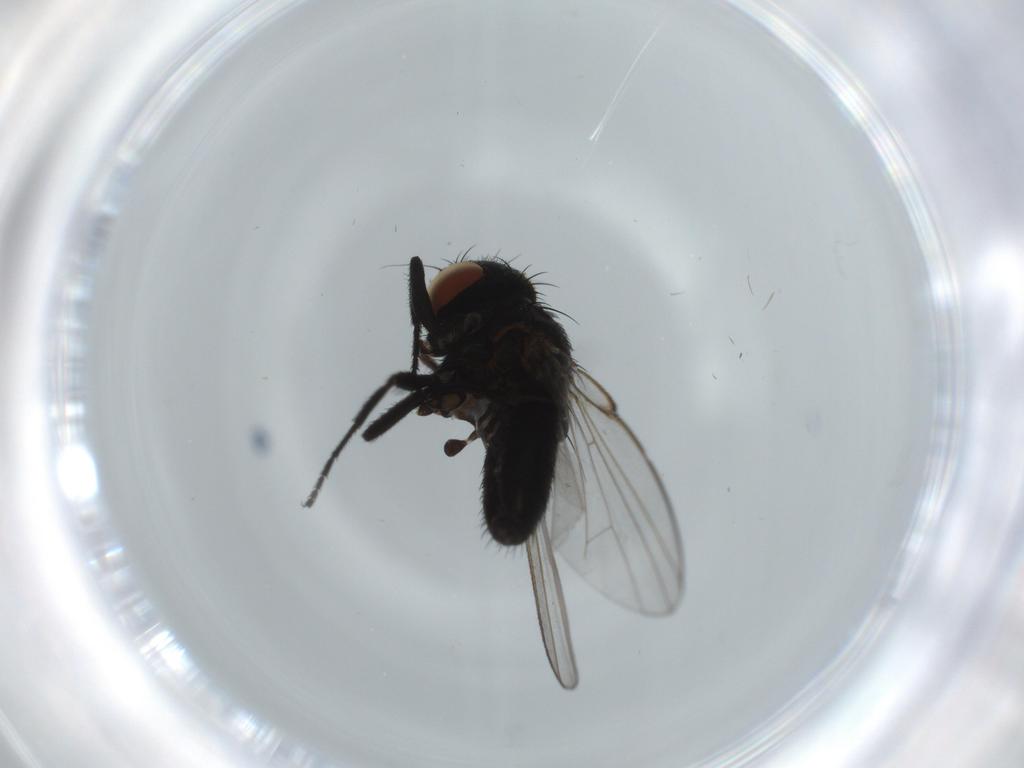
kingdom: Animalia
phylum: Arthropoda
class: Insecta
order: Diptera
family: Milichiidae
